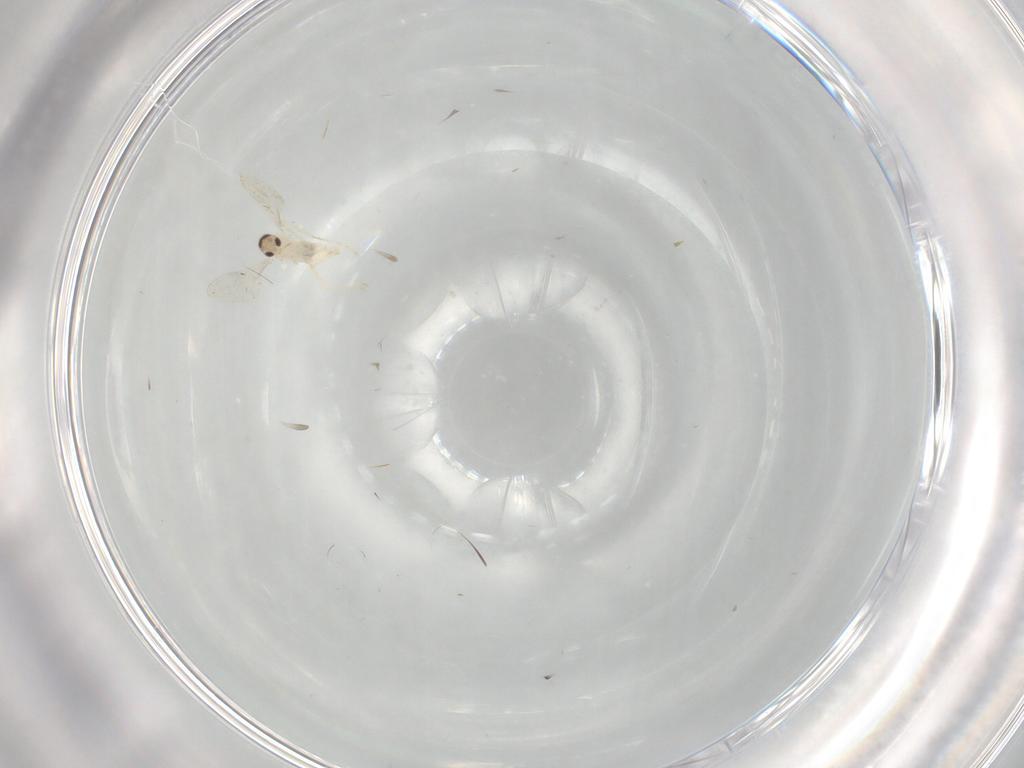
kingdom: Animalia
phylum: Arthropoda
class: Insecta
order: Diptera
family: Cecidomyiidae
